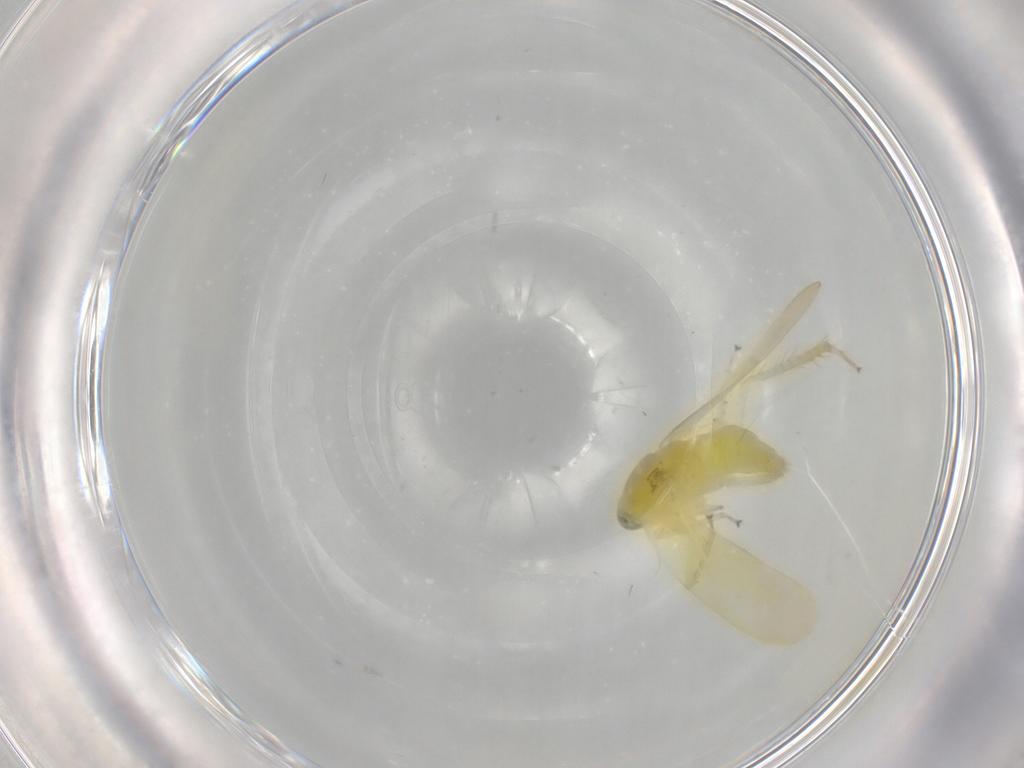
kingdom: Animalia
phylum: Arthropoda
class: Insecta
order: Hemiptera
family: Cicadellidae
